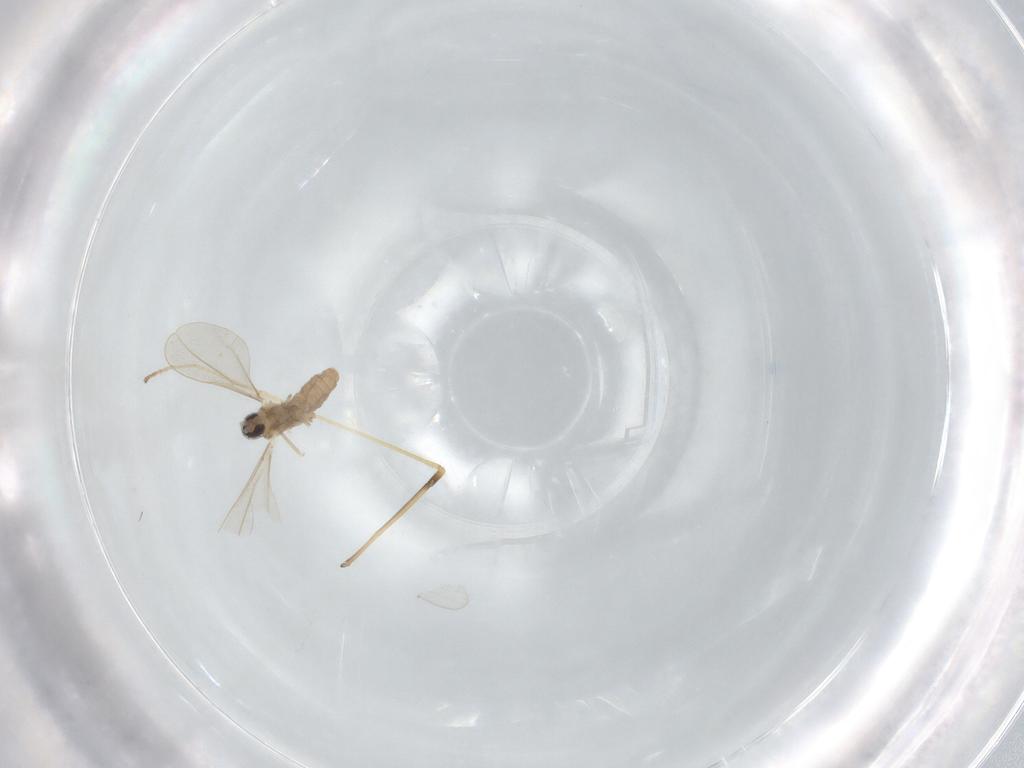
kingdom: Animalia
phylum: Arthropoda
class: Insecta
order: Diptera
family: Cecidomyiidae
